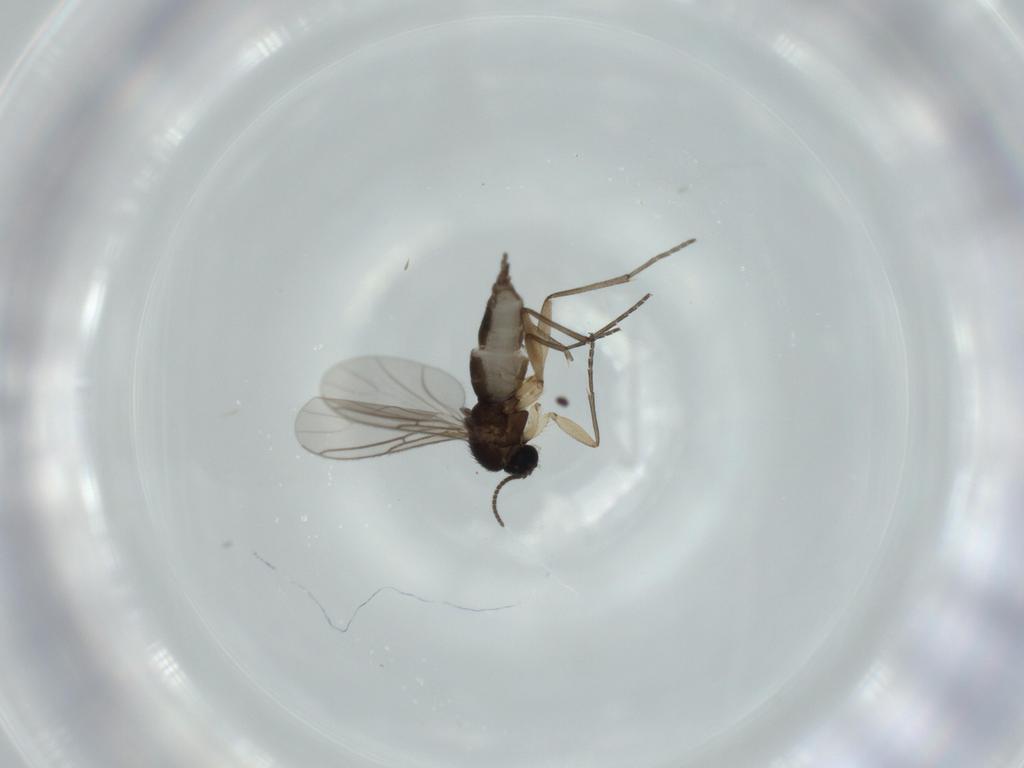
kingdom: Animalia
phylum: Arthropoda
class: Insecta
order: Diptera
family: Sciaridae
